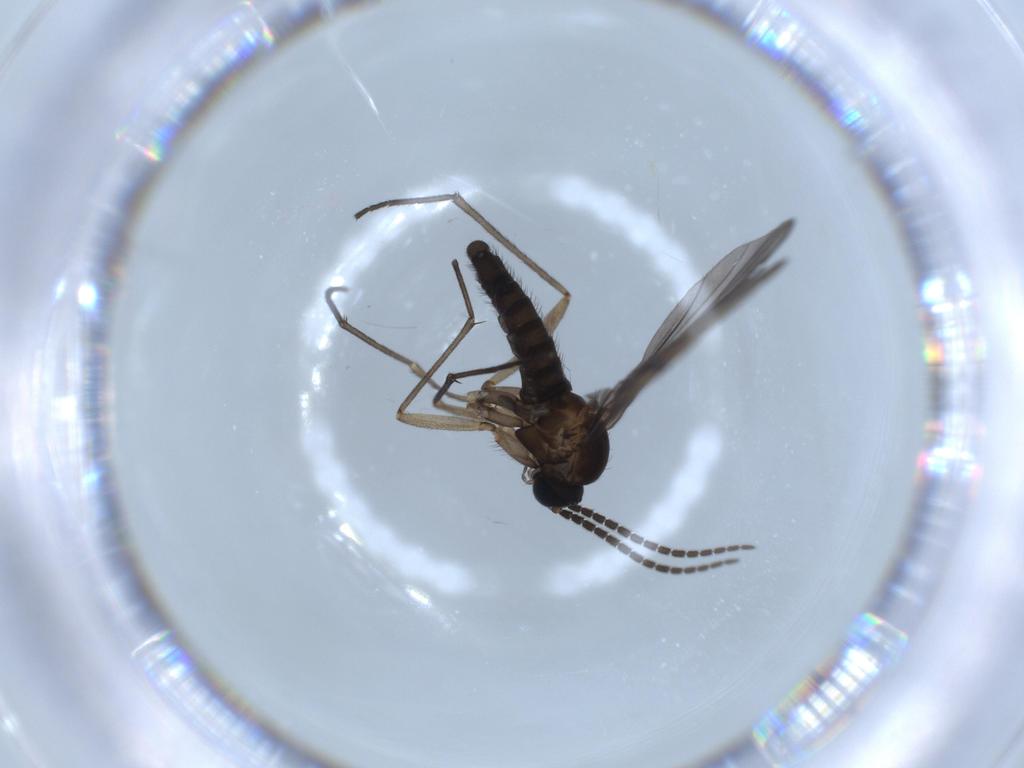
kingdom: Animalia
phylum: Arthropoda
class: Insecta
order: Diptera
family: Sciaridae
